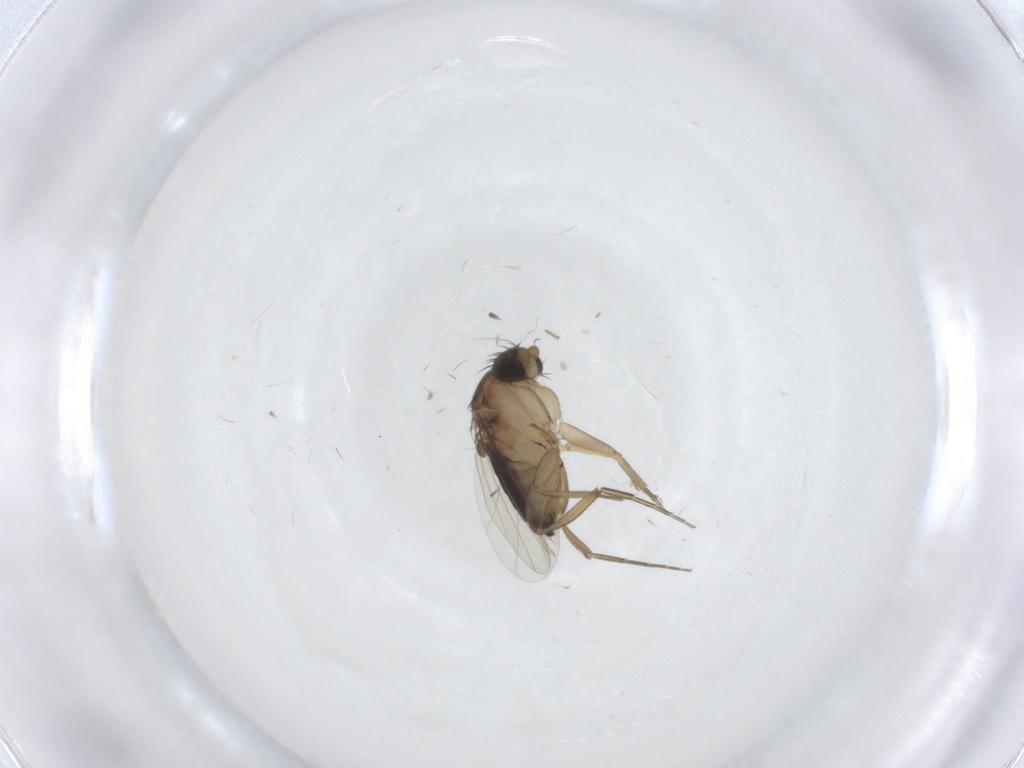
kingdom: Animalia
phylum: Arthropoda
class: Insecta
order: Diptera
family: Psychodidae
